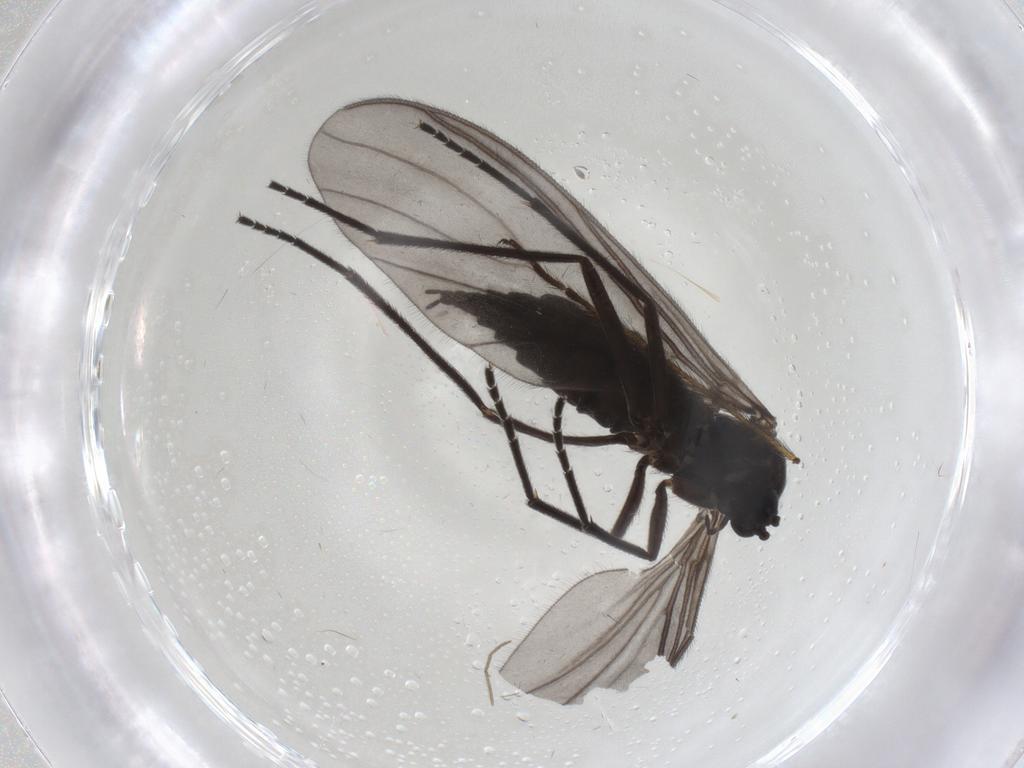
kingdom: Animalia
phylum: Arthropoda
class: Insecta
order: Diptera
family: Sciaridae
